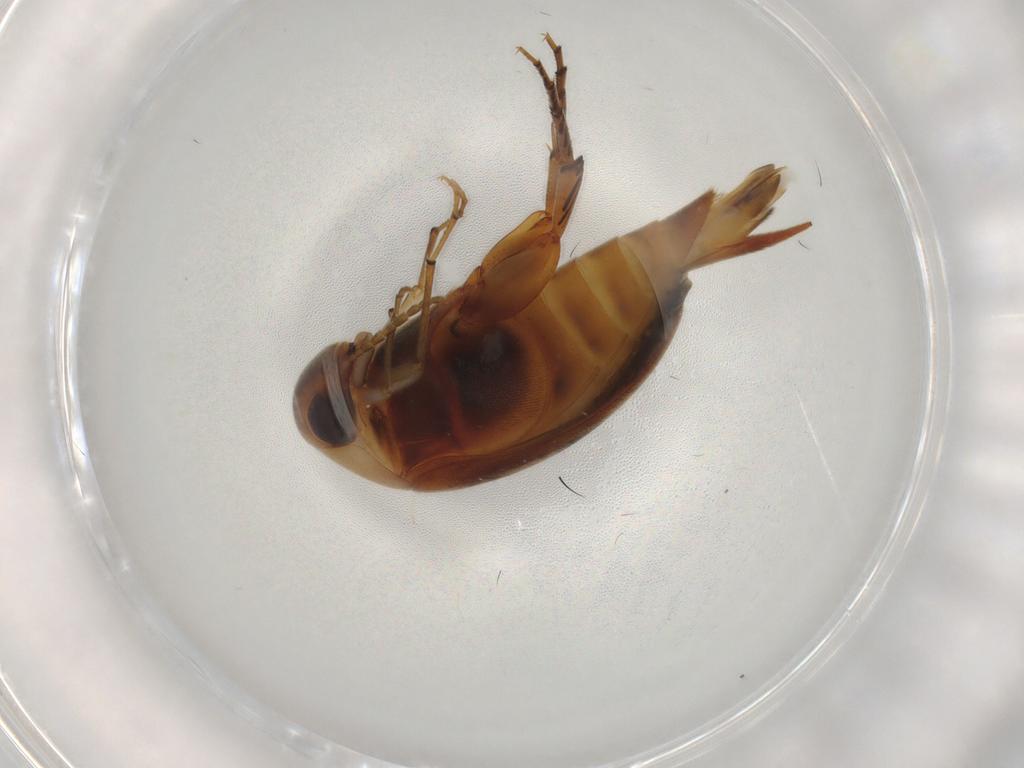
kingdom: Animalia
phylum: Arthropoda
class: Insecta
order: Coleoptera
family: Mordellidae
